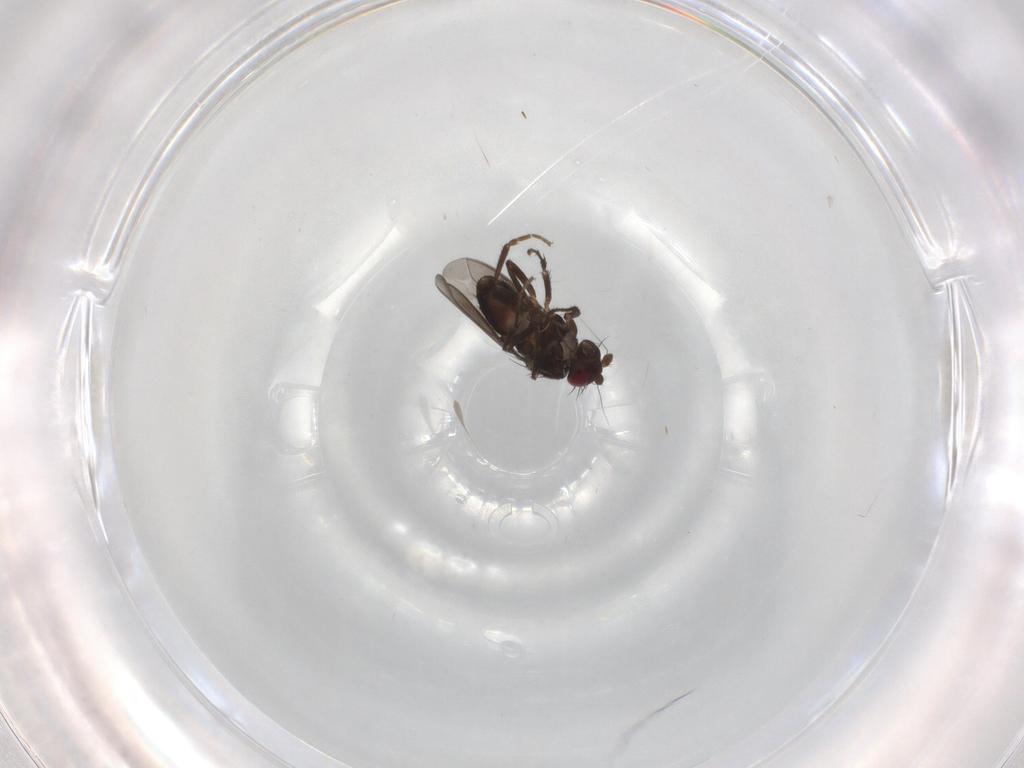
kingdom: Animalia
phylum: Arthropoda
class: Insecta
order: Diptera
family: Sphaeroceridae
